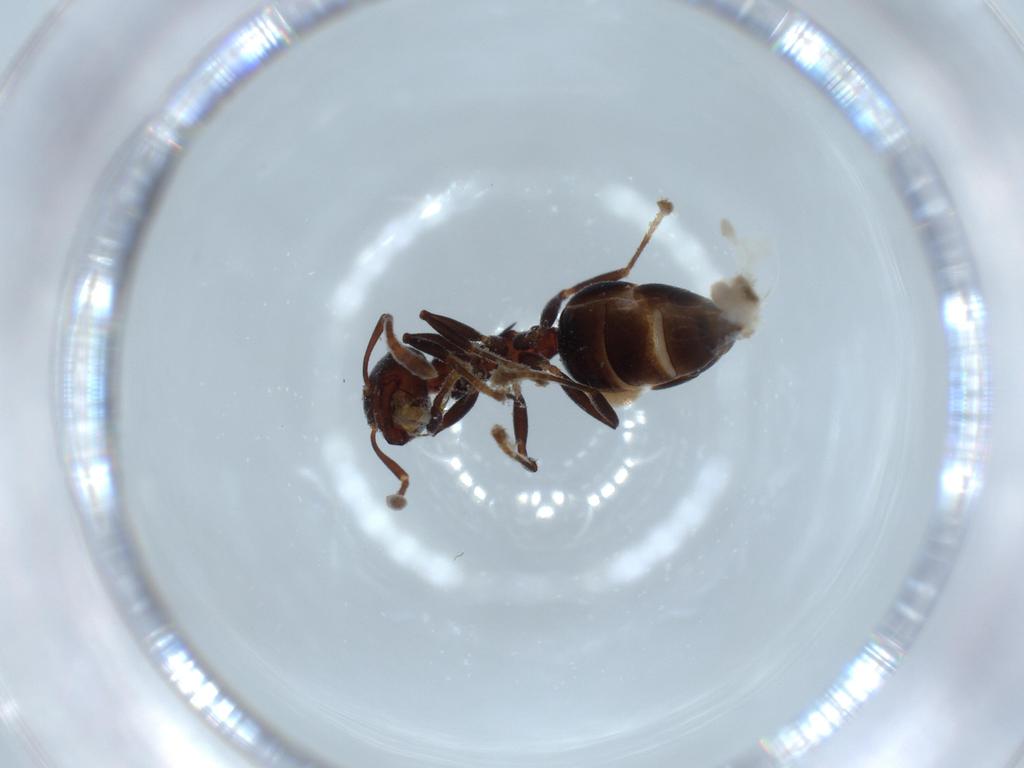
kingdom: Animalia
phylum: Arthropoda
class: Insecta
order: Hymenoptera
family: Formicidae
